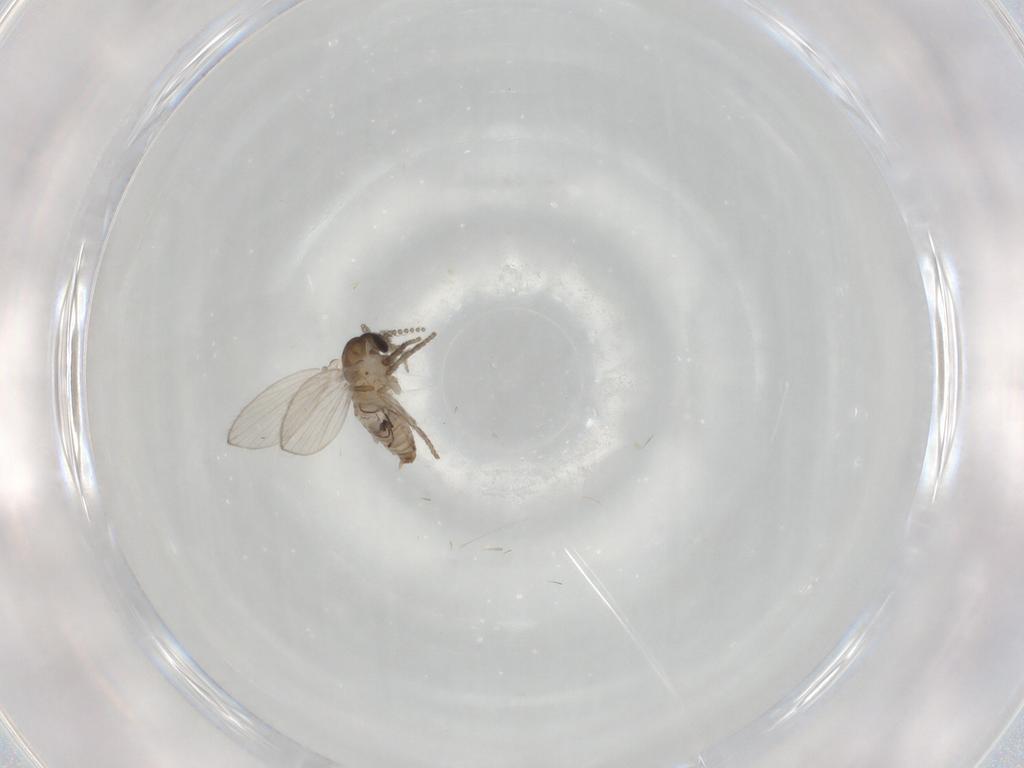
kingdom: Animalia
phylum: Arthropoda
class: Insecta
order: Diptera
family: Psychodidae
